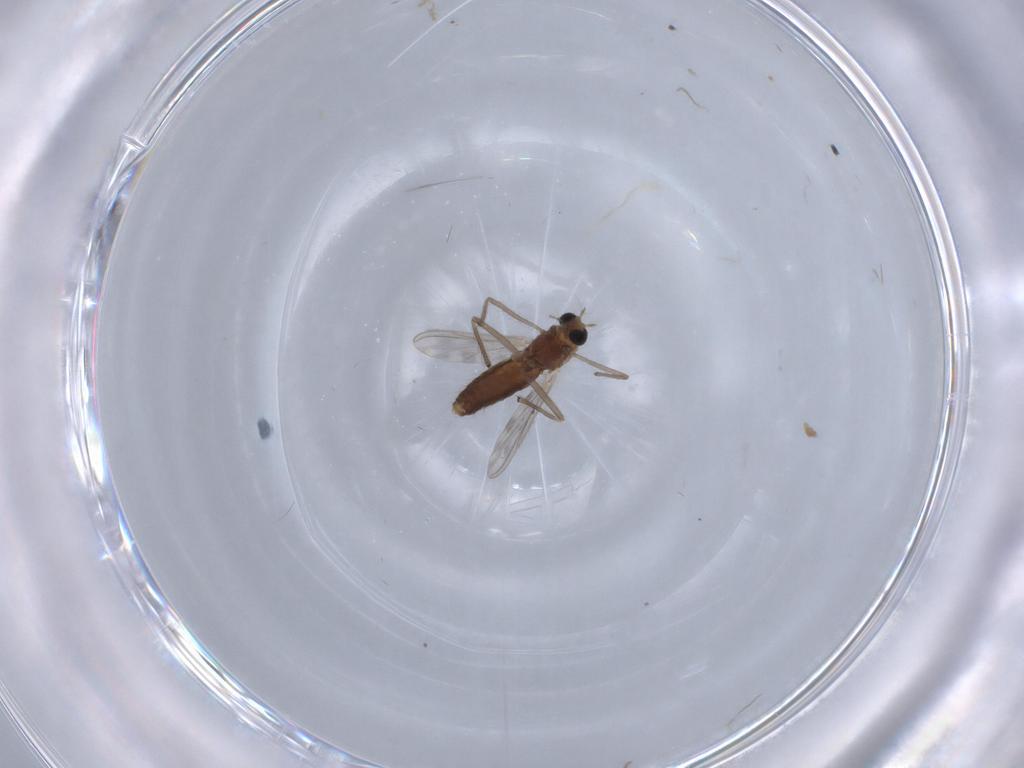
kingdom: Animalia
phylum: Arthropoda
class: Insecta
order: Diptera
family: Chironomidae
